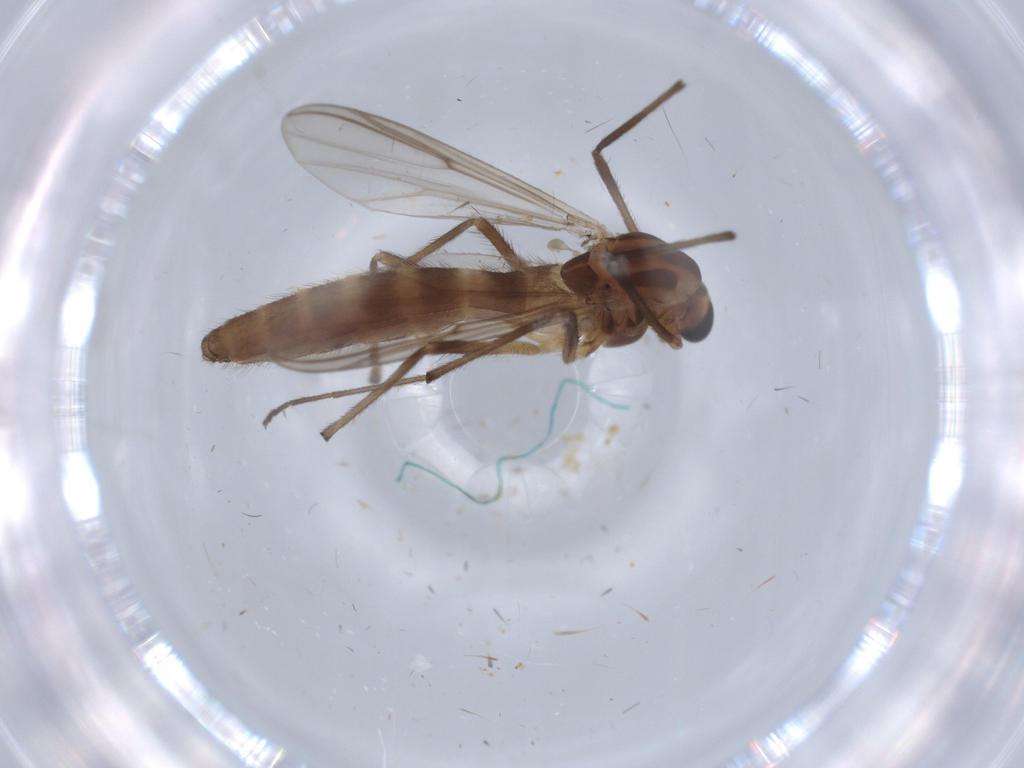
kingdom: Animalia
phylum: Arthropoda
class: Insecta
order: Diptera
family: Chironomidae
